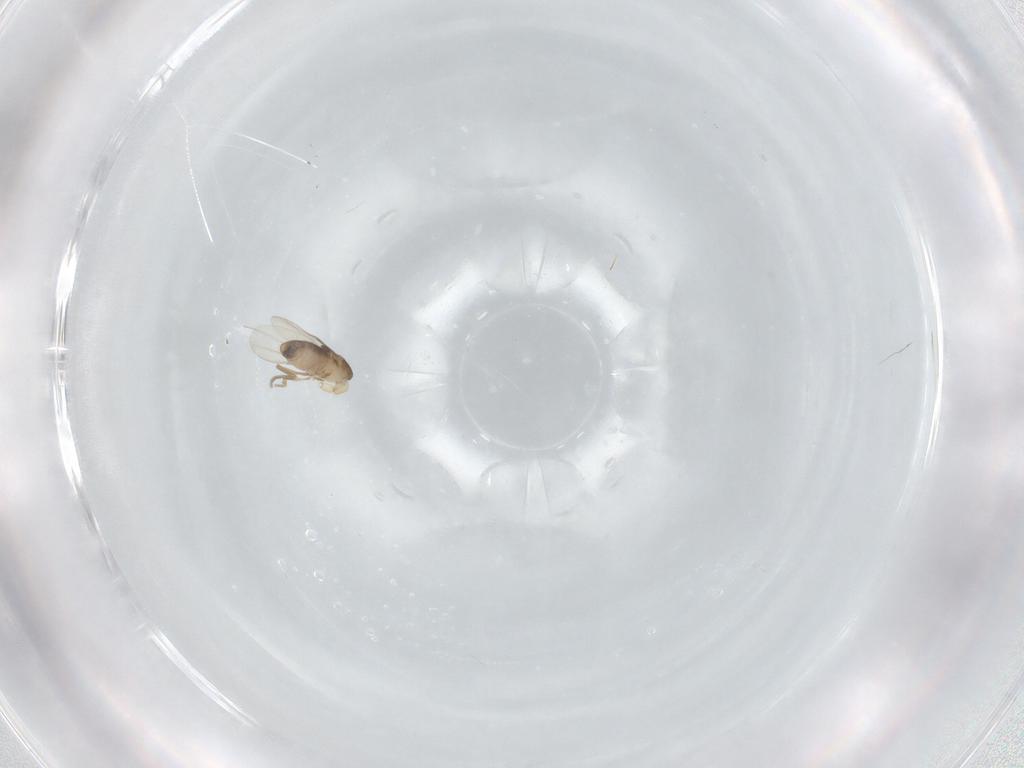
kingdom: Animalia
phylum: Arthropoda
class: Insecta
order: Diptera
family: Phoridae
